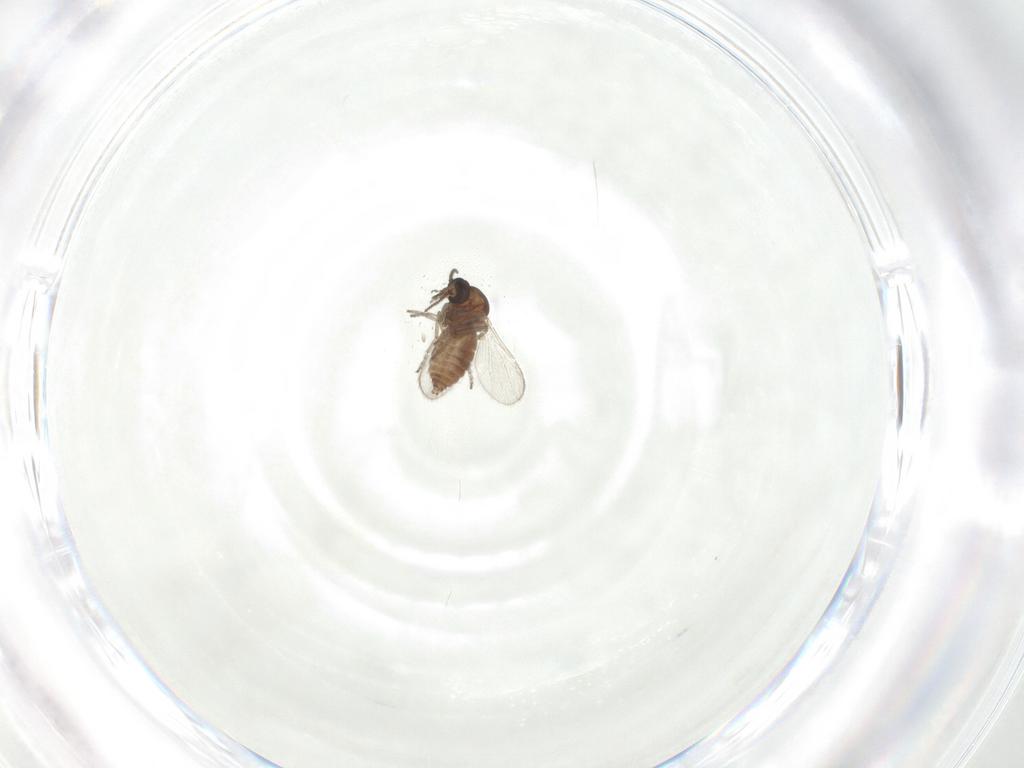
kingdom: Animalia
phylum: Arthropoda
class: Insecta
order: Diptera
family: Ceratopogonidae
